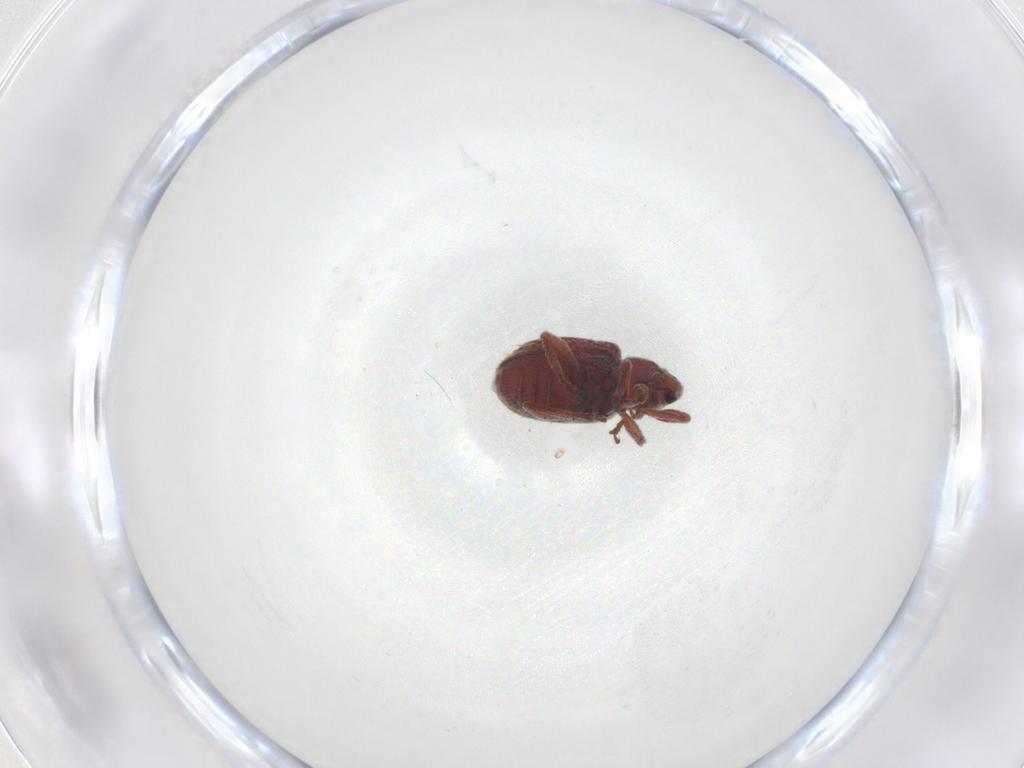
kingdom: Animalia
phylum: Arthropoda
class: Insecta
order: Coleoptera
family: Curculionidae
